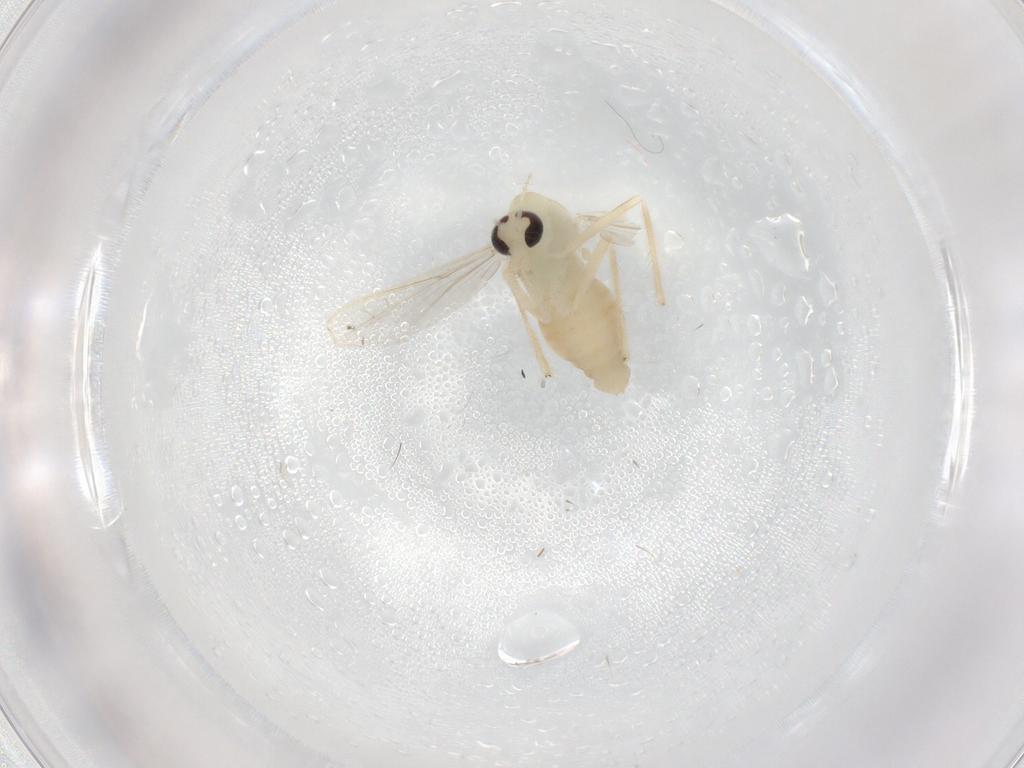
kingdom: Animalia
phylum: Arthropoda
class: Insecta
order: Diptera
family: Chironomidae
